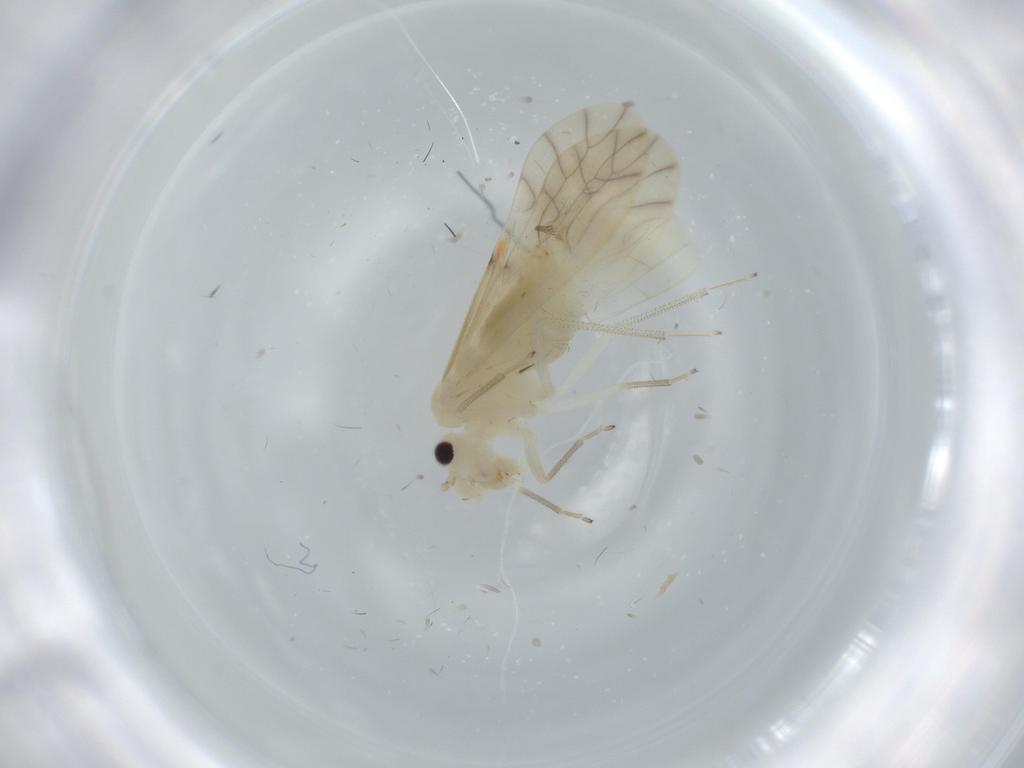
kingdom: Animalia
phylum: Arthropoda
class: Insecta
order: Psocodea
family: Caeciliusidae
